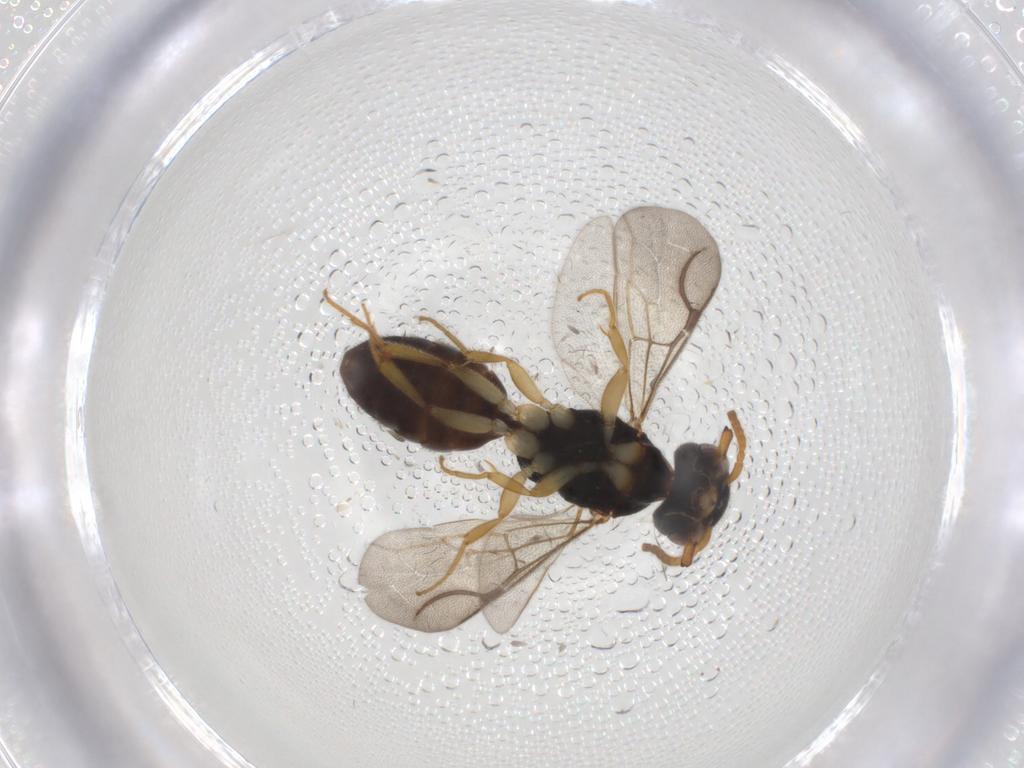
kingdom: Animalia
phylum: Arthropoda
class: Insecta
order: Hymenoptera
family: Bethylidae
